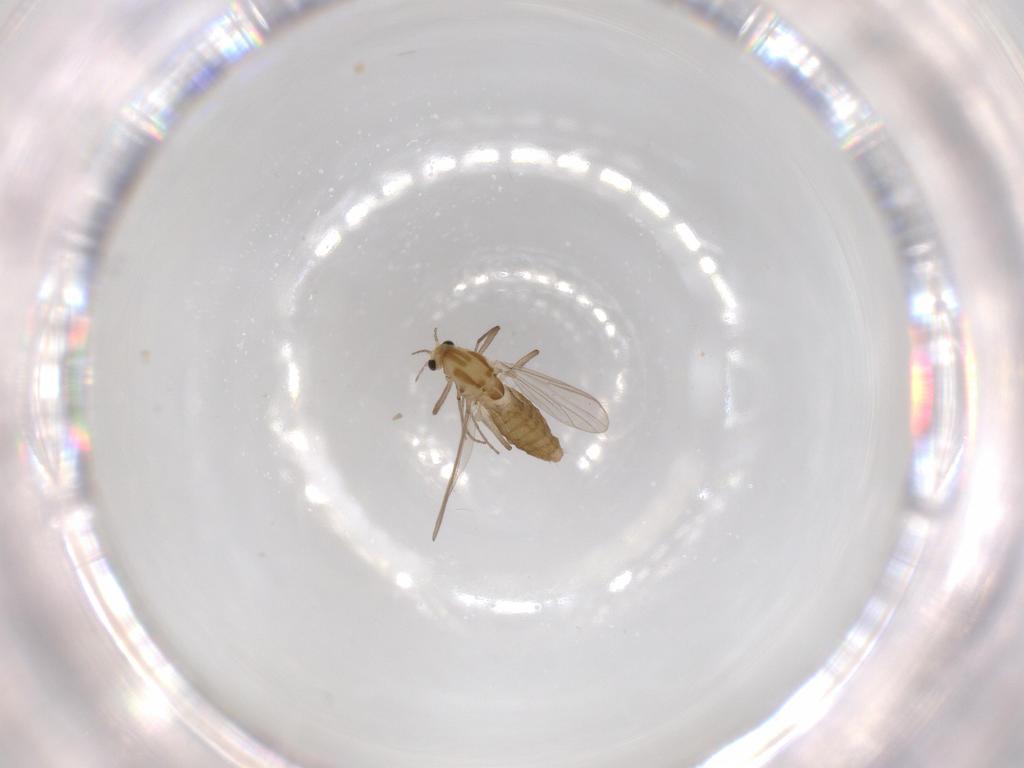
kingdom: Animalia
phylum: Arthropoda
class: Insecta
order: Diptera
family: Chironomidae
